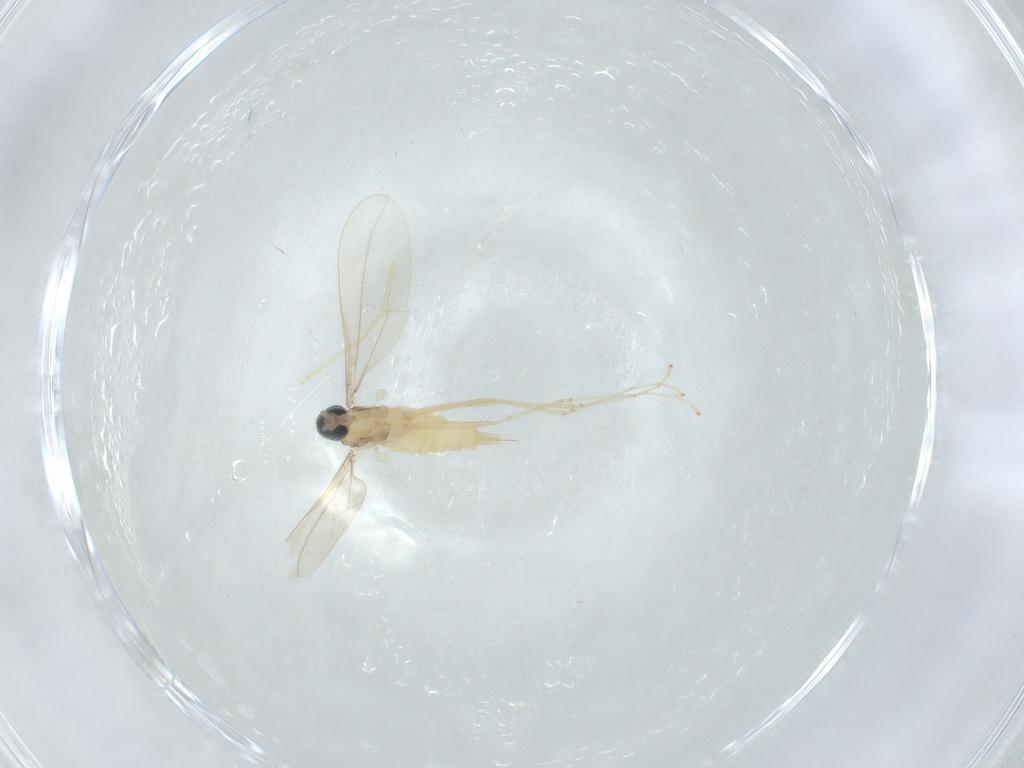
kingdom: Animalia
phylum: Arthropoda
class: Insecta
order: Diptera
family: Limoniidae
